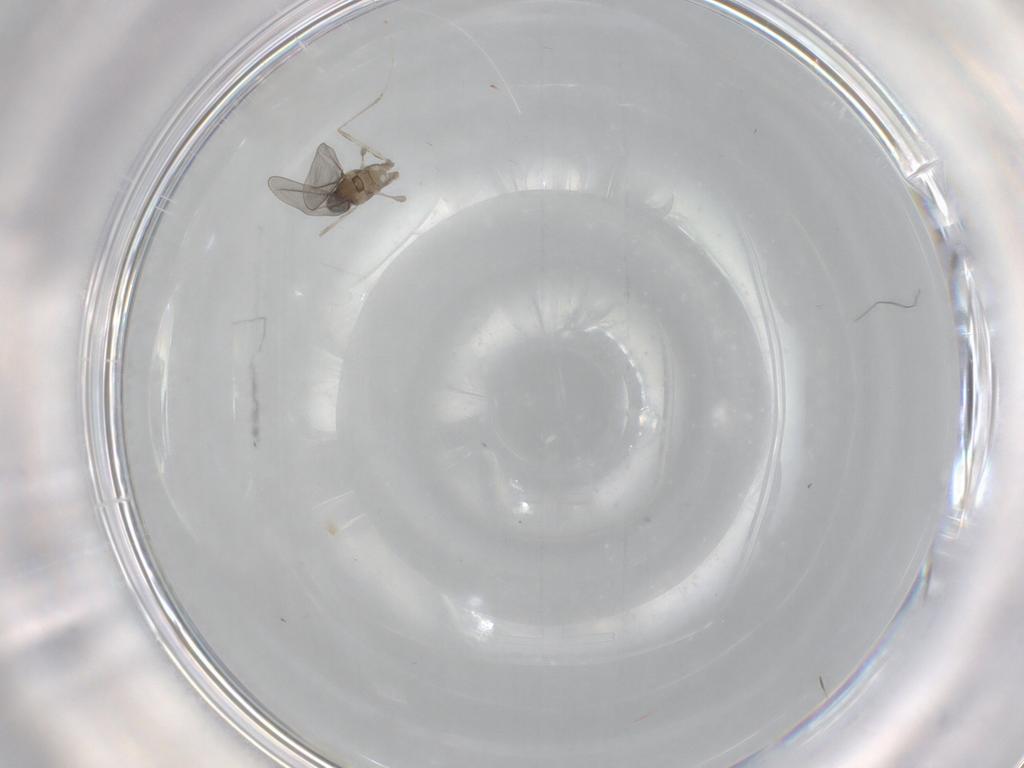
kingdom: Animalia
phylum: Arthropoda
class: Insecta
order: Diptera
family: Cecidomyiidae
